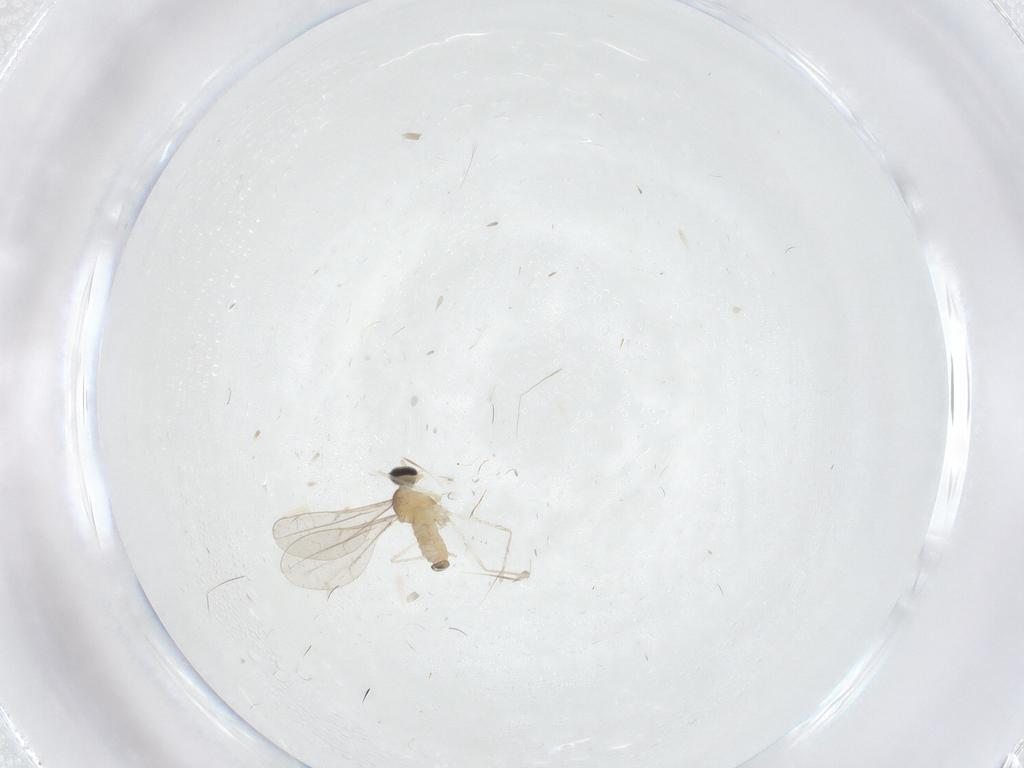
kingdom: Animalia
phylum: Arthropoda
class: Insecta
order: Diptera
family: Cecidomyiidae
